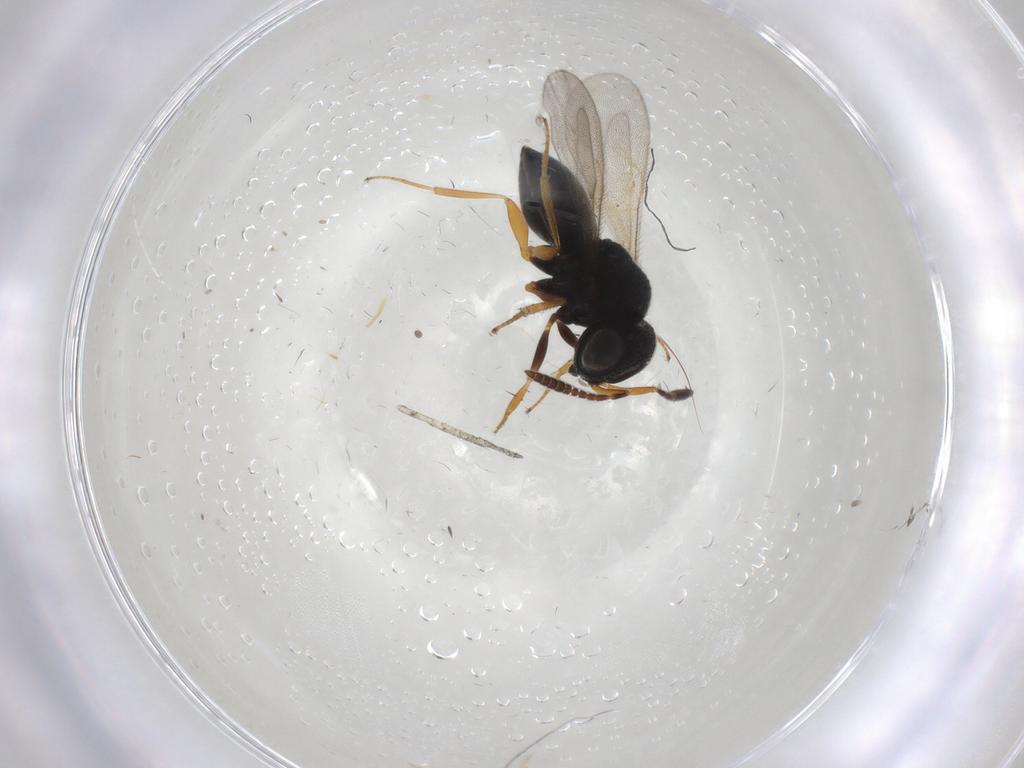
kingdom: Animalia
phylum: Arthropoda
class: Insecta
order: Hymenoptera
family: Scelionidae
